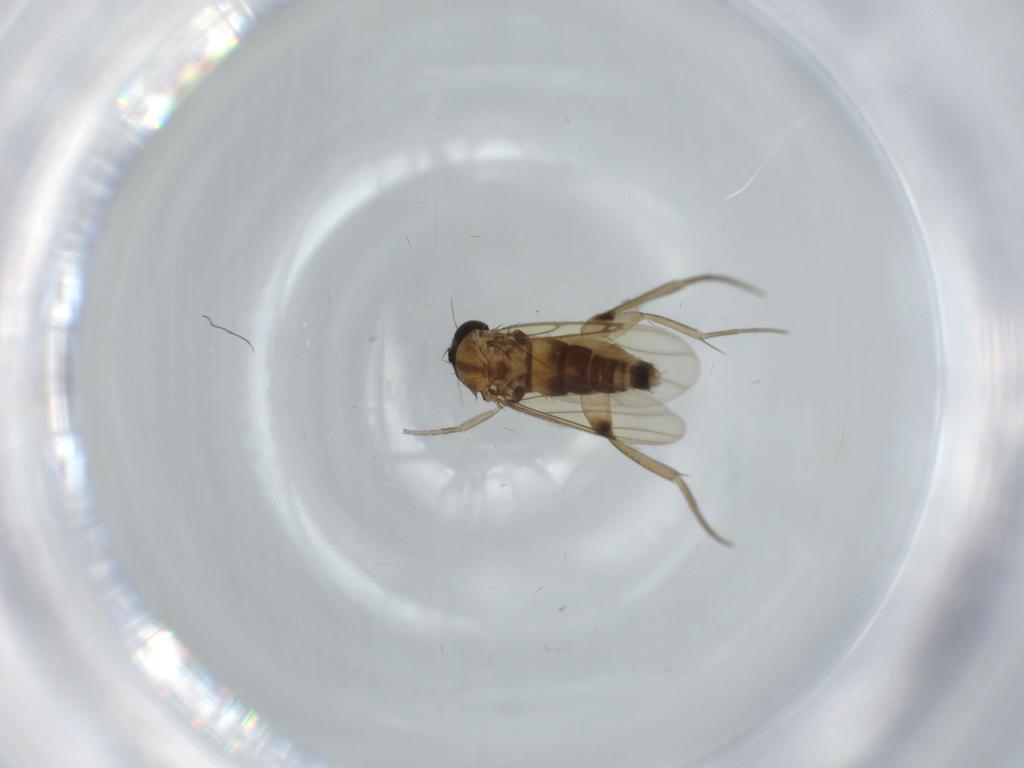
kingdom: Animalia
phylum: Arthropoda
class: Insecta
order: Diptera
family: Phoridae
